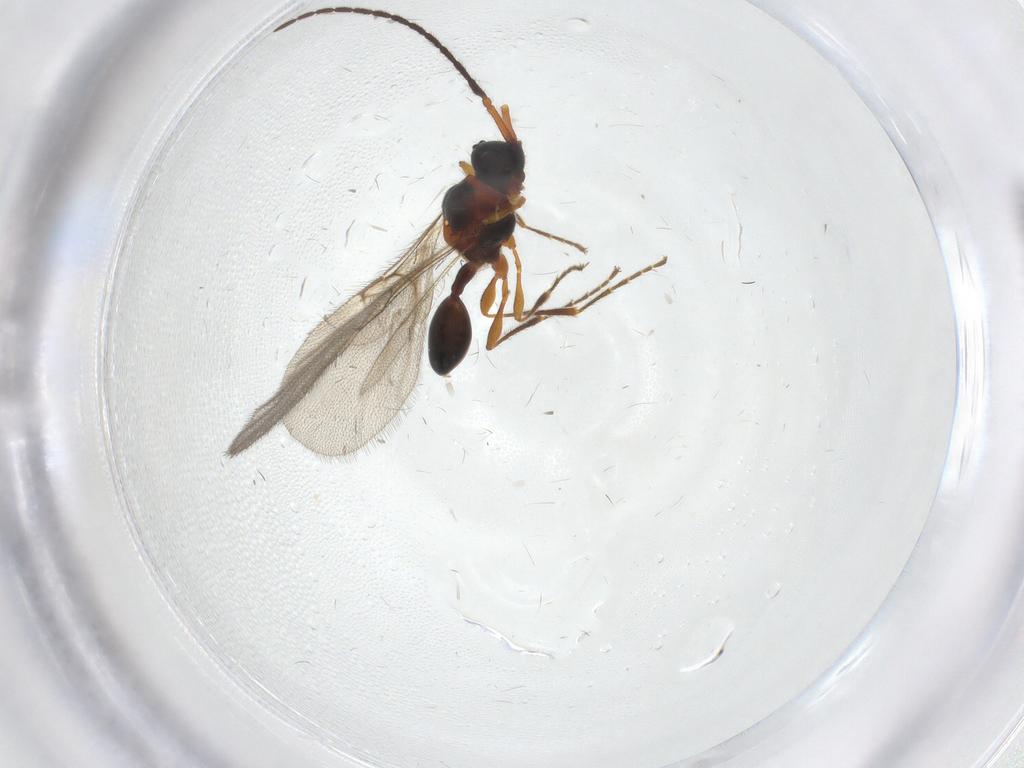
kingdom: Animalia
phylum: Arthropoda
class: Insecta
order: Hymenoptera
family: Diapriidae
